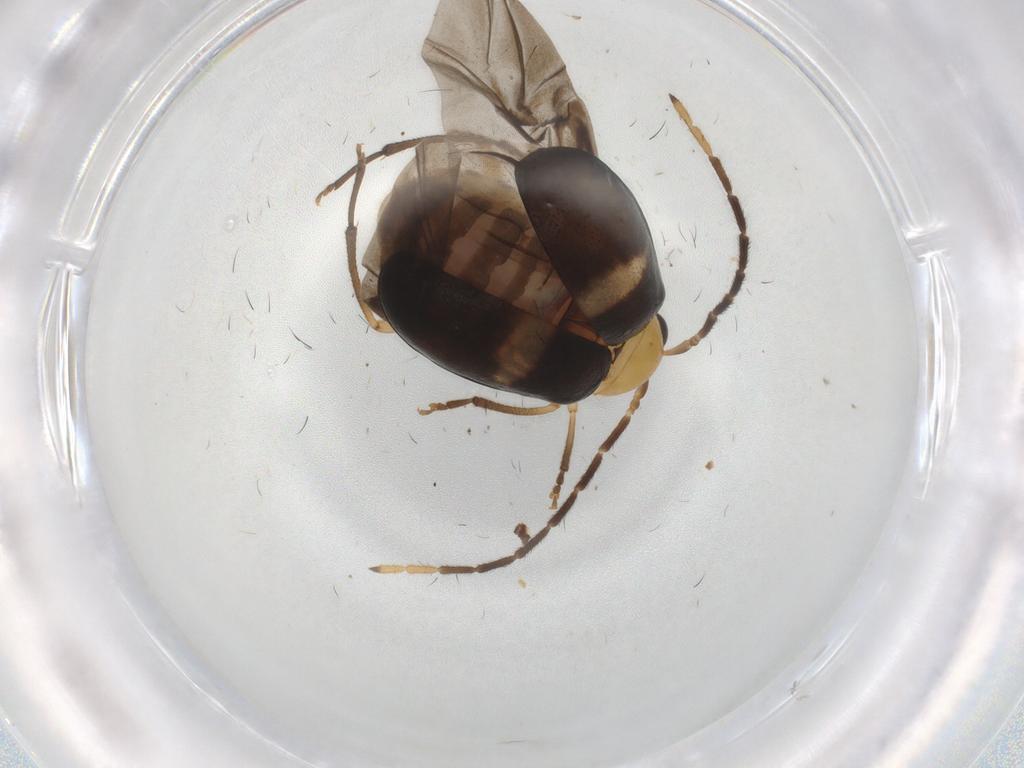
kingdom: Animalia
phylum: Arthropoda
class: Insecta
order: Coleoptera
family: Chrysomelidae
